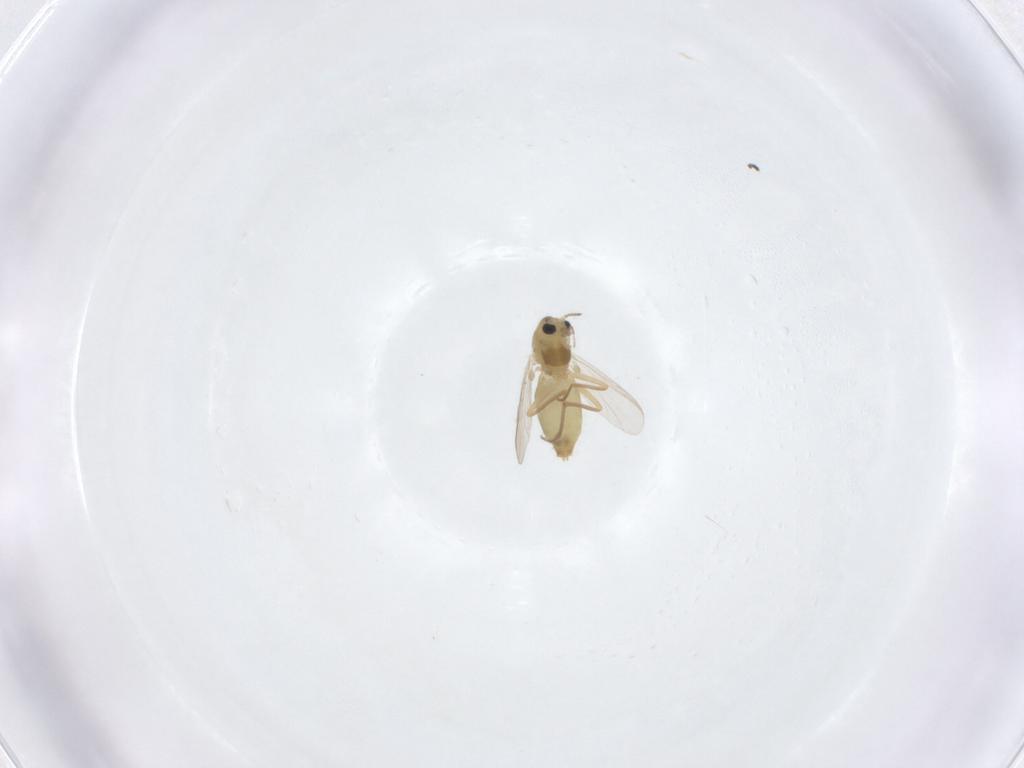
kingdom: Animalia
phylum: Arthropoda
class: Insecta
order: Diptera
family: Chironomidae
